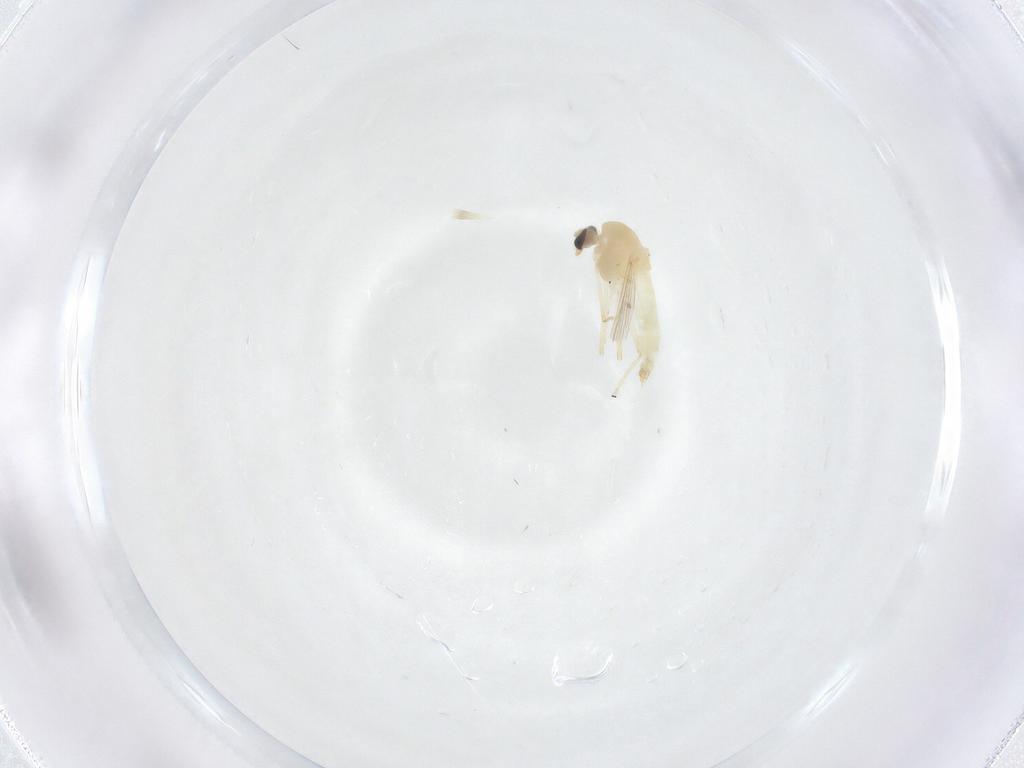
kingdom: Animalia
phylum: Arthropoda
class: Insecta
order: Diptera
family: Chironomidae
